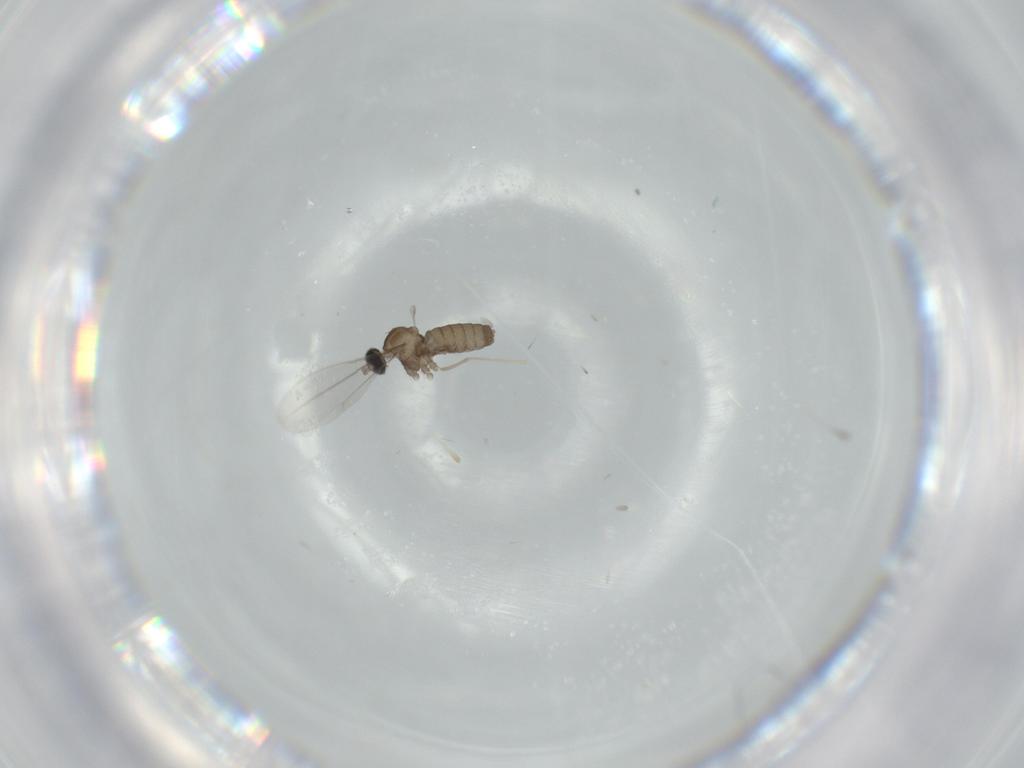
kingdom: Animalia
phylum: Arthropoda
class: Insecta
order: Diptera
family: Cecidomyiidae
